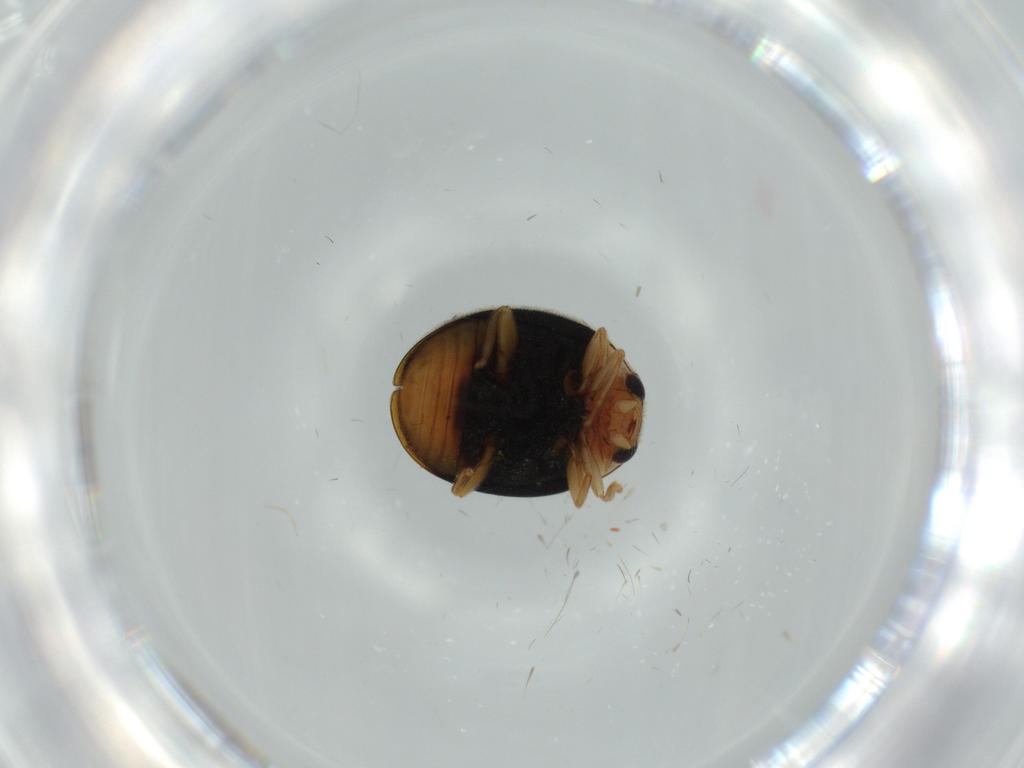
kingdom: Animalia
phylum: Arthropoda
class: Insecta
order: Coleoptera
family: Coccinellidae
